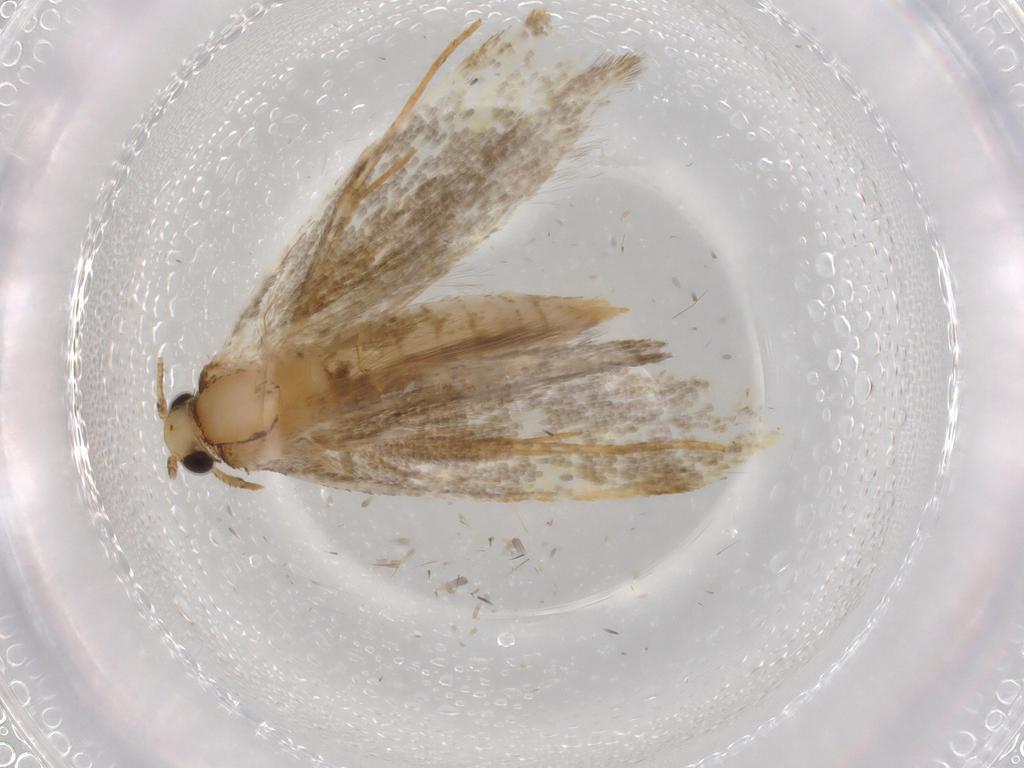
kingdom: Animalia
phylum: Arthropoda
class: Insecta
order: Lepidoptera
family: Tineidae
